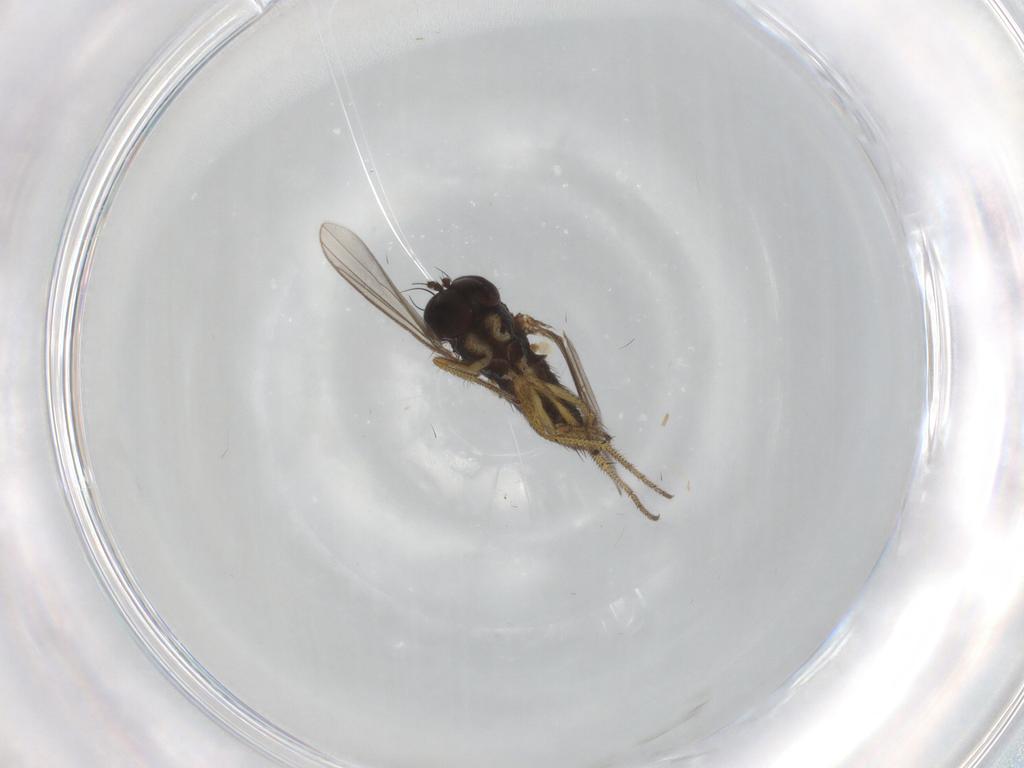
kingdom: Animalia
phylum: Arthropoda
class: Insecta
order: Diptera
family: Chironomidae
